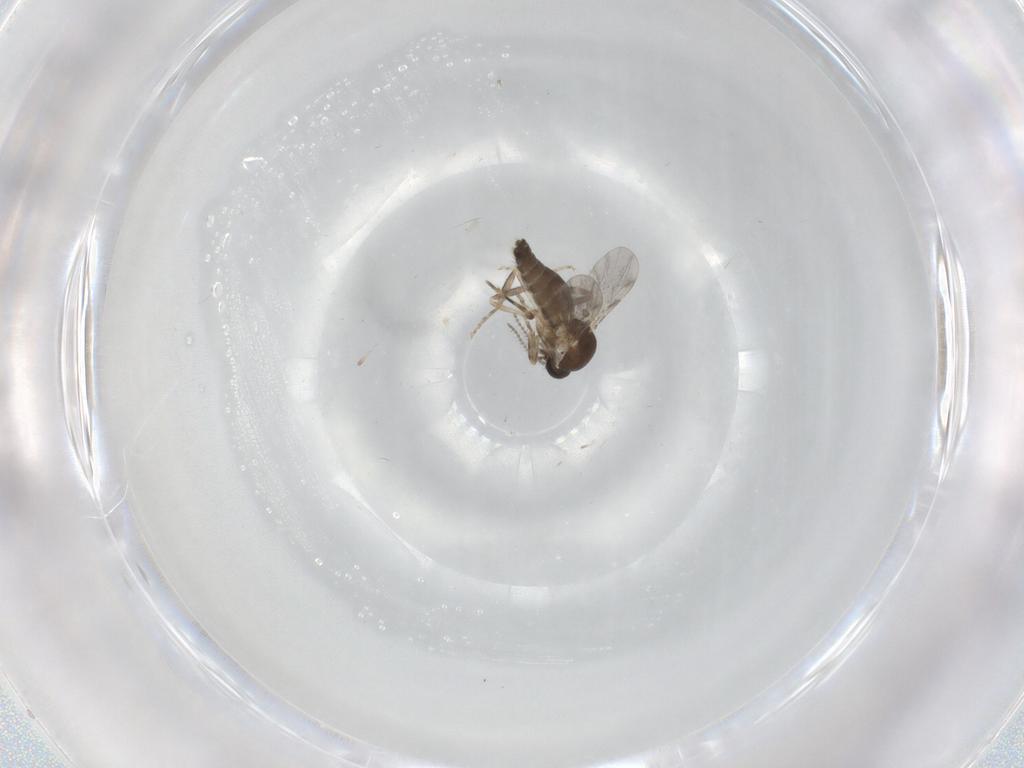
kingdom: Animalia
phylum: Arthropoda
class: Insecta
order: Diptera
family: Ceratopogonidae
